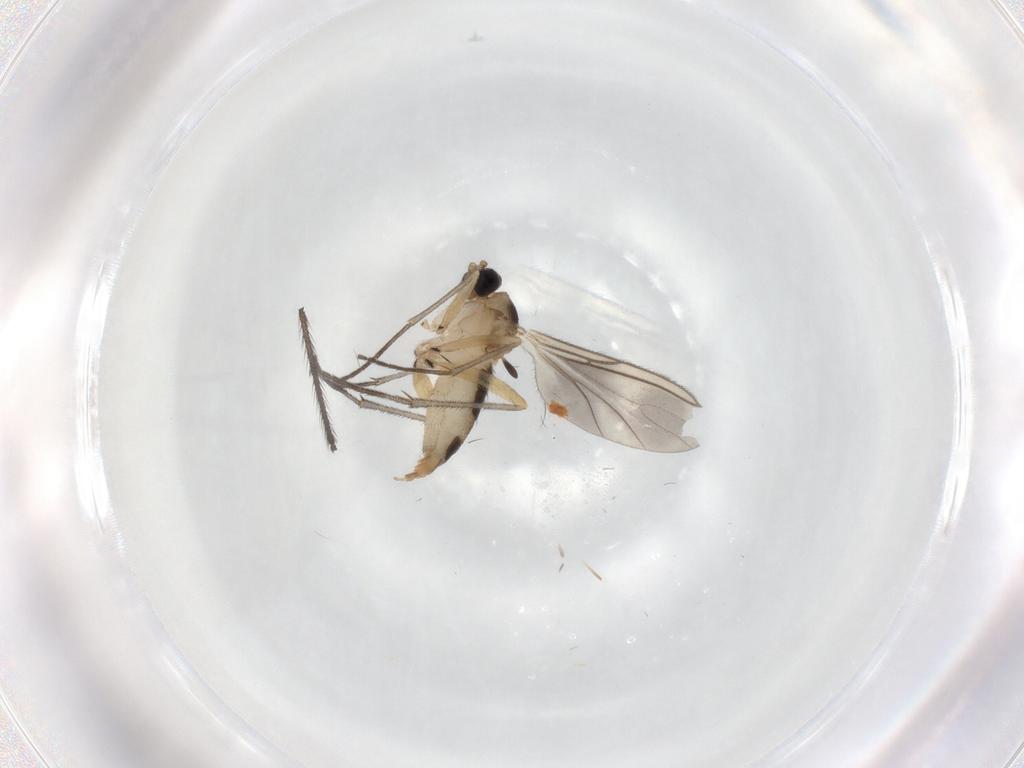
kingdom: Animalia
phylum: Arthropoda
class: Insecta
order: Diptera
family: Sciaridae
